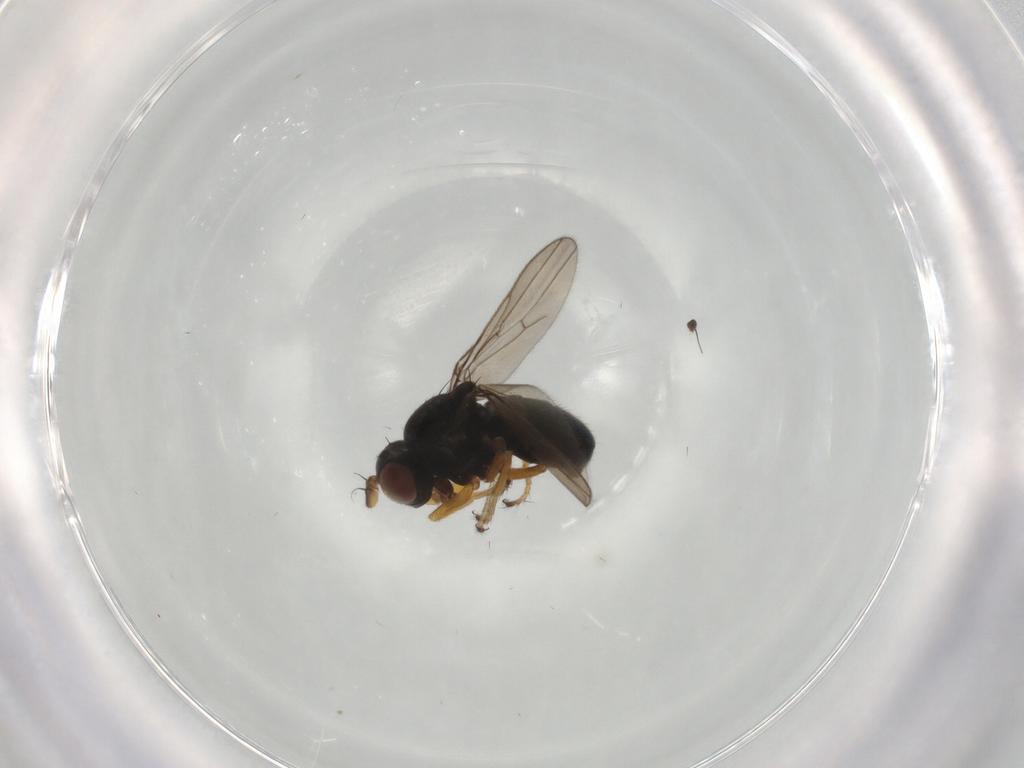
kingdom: Animalia
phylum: Arthropoda
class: Insecta
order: Diptera
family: Ephydridae
